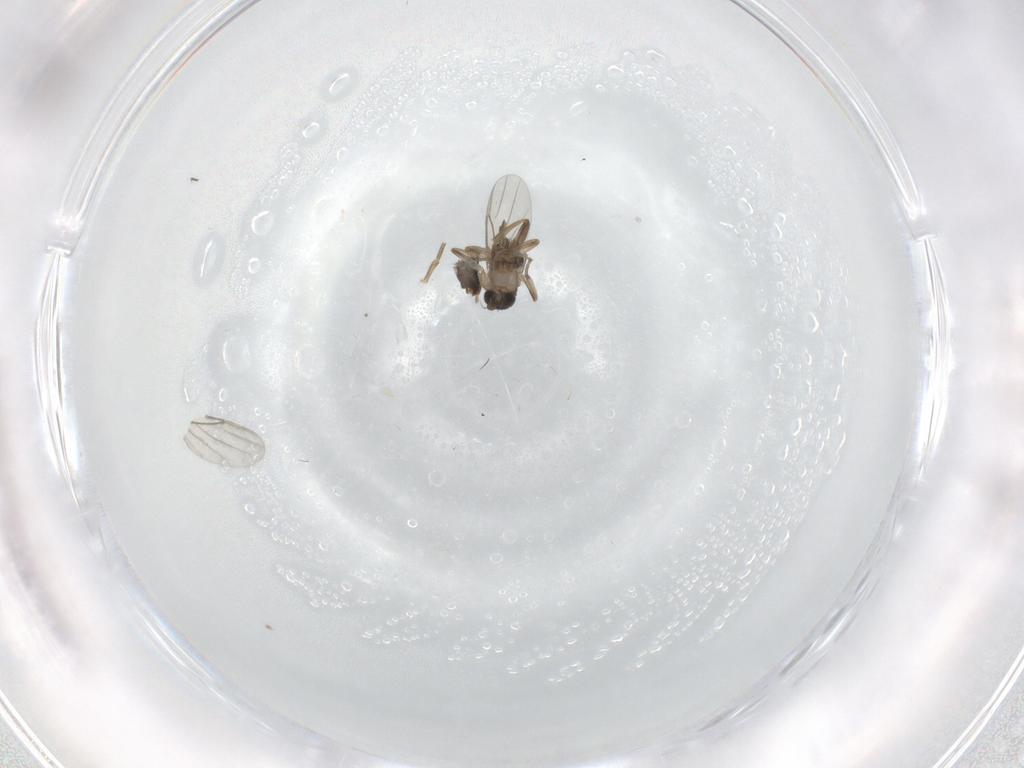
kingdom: Animalia
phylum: Arthropoda
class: Insecta
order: Diptera
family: Phoridae
